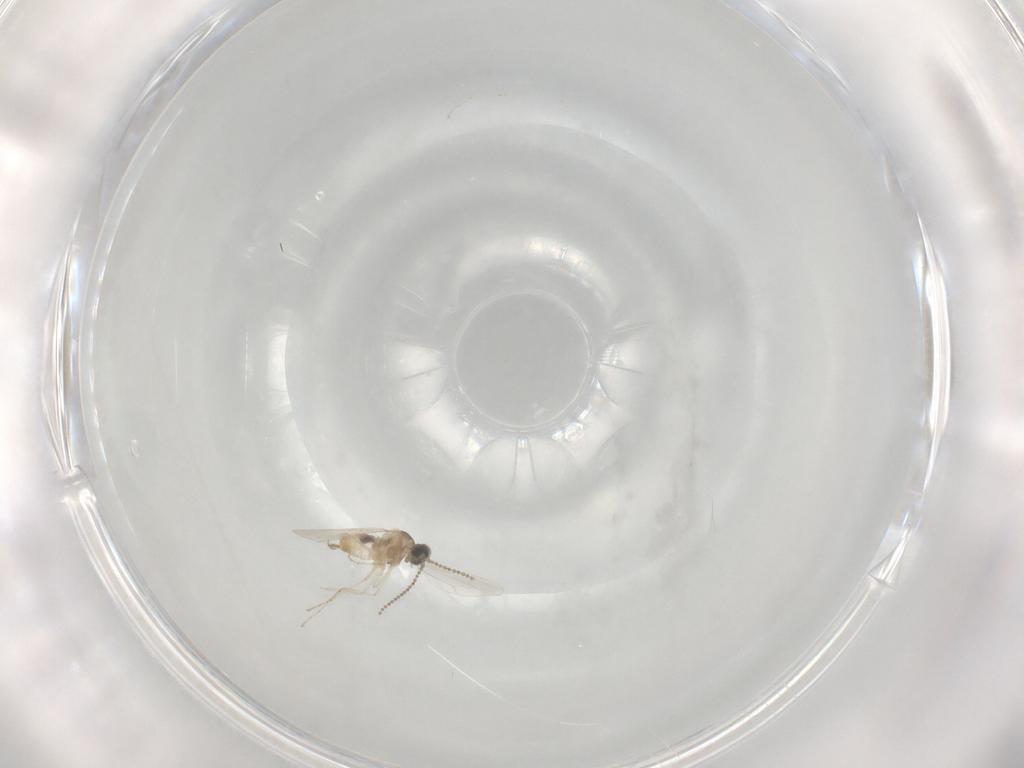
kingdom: Animalia
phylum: Arthropoda
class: Insecta
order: Diptera
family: Cecidomyiidae
